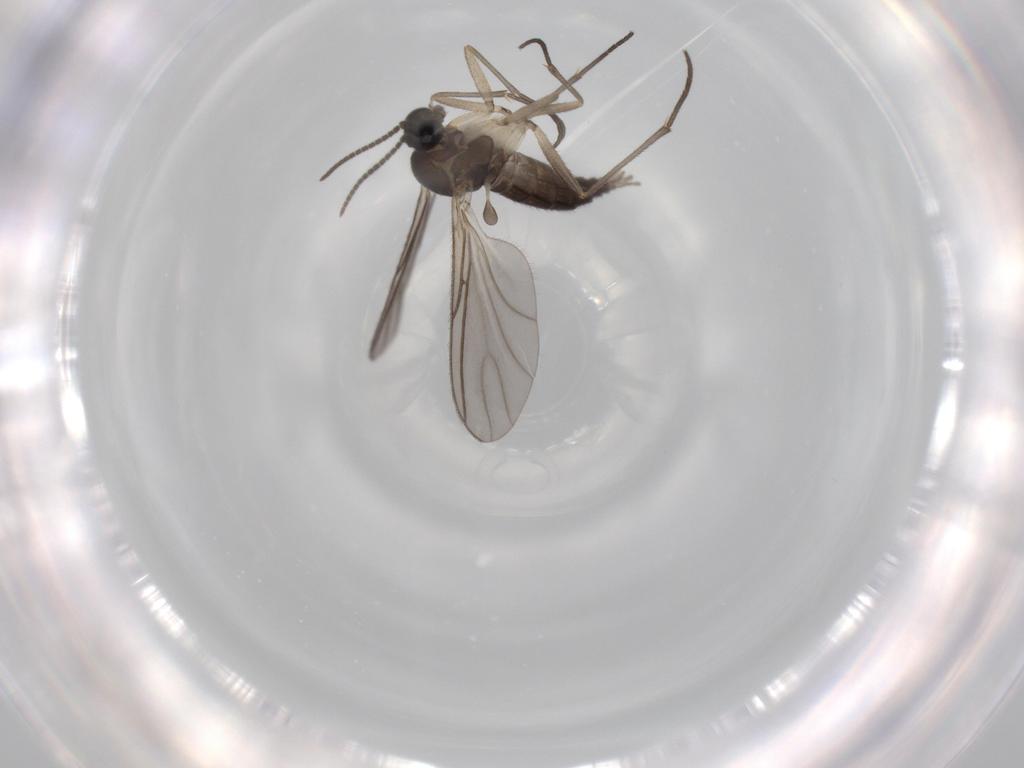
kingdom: Animalia
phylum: Arthropoda
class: Insecta
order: Diptera
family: Sciaridae
